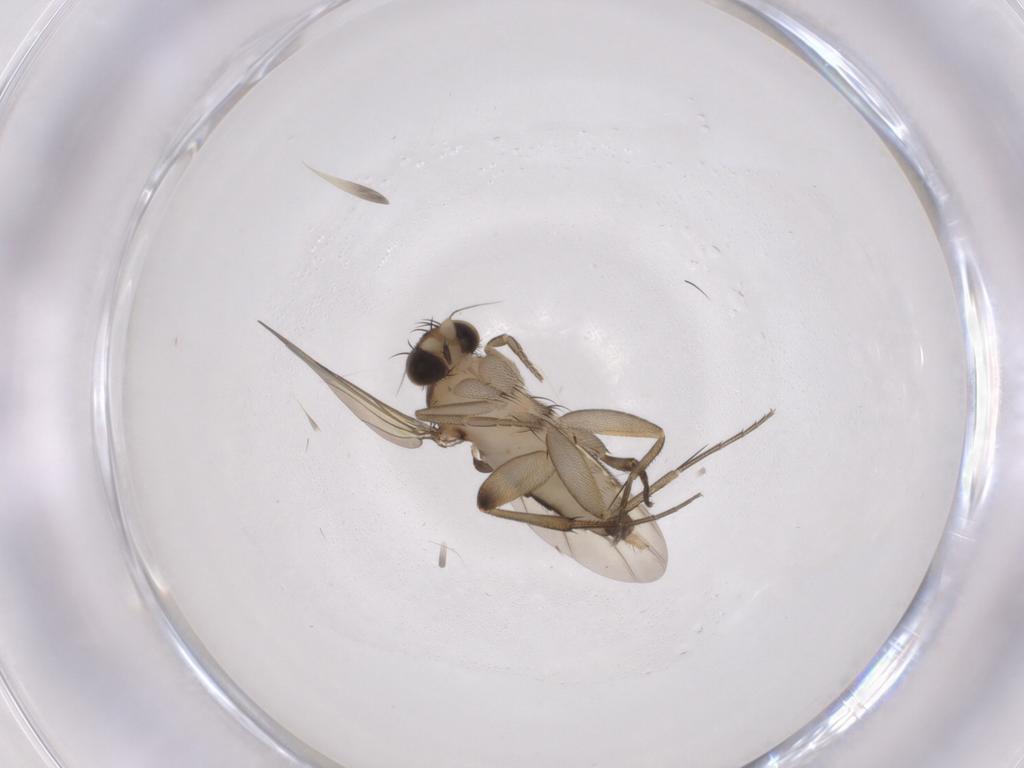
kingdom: Animalia
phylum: Arthropoda
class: Insecta
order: Diptera
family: Phoridae
